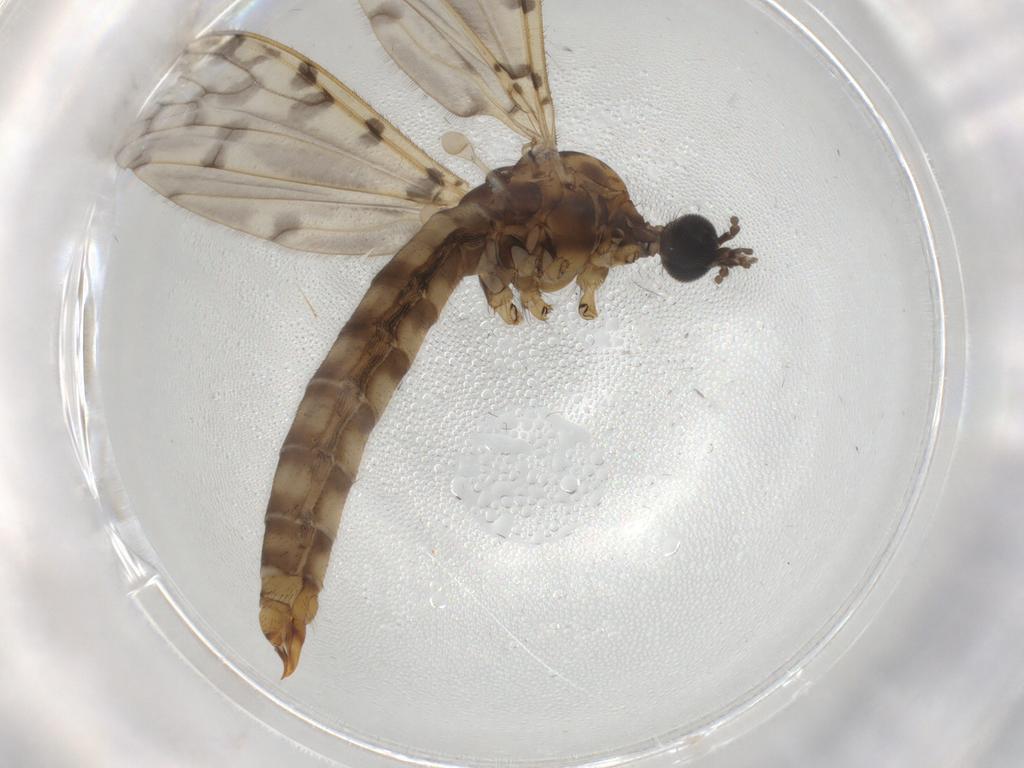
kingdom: Animalia
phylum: Arthropoda
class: Insecta
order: Diptera
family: Ceratopogonidae
